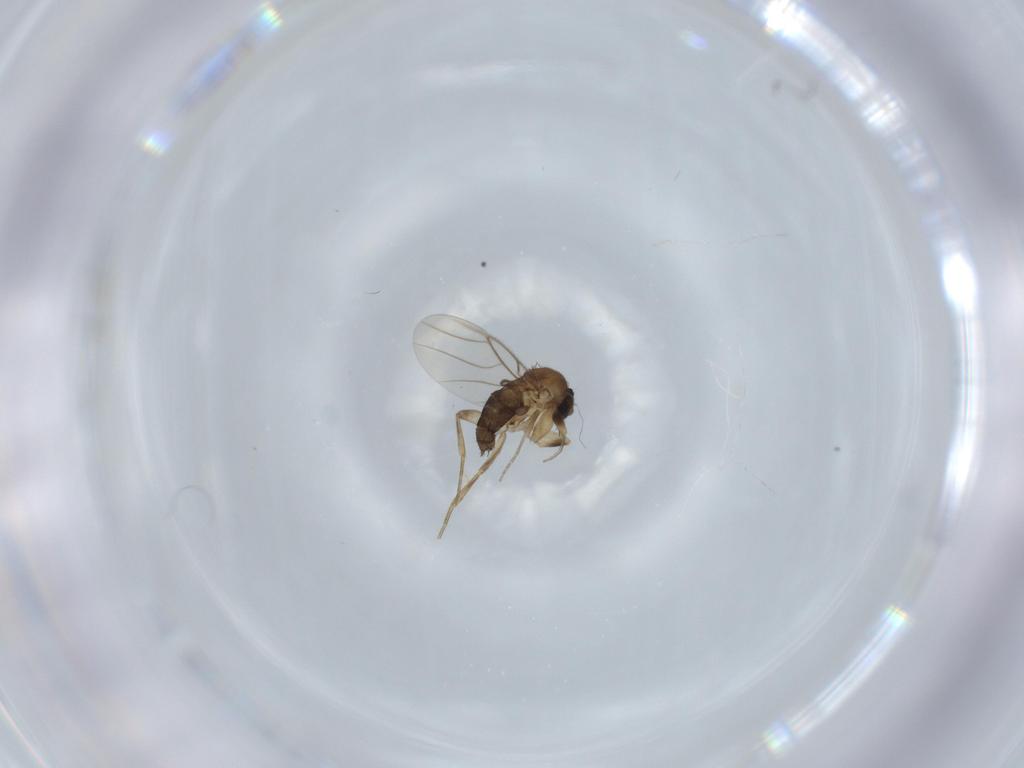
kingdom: Animalia
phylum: Arthropoda
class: Insecta
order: Diptera
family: Phoridae
